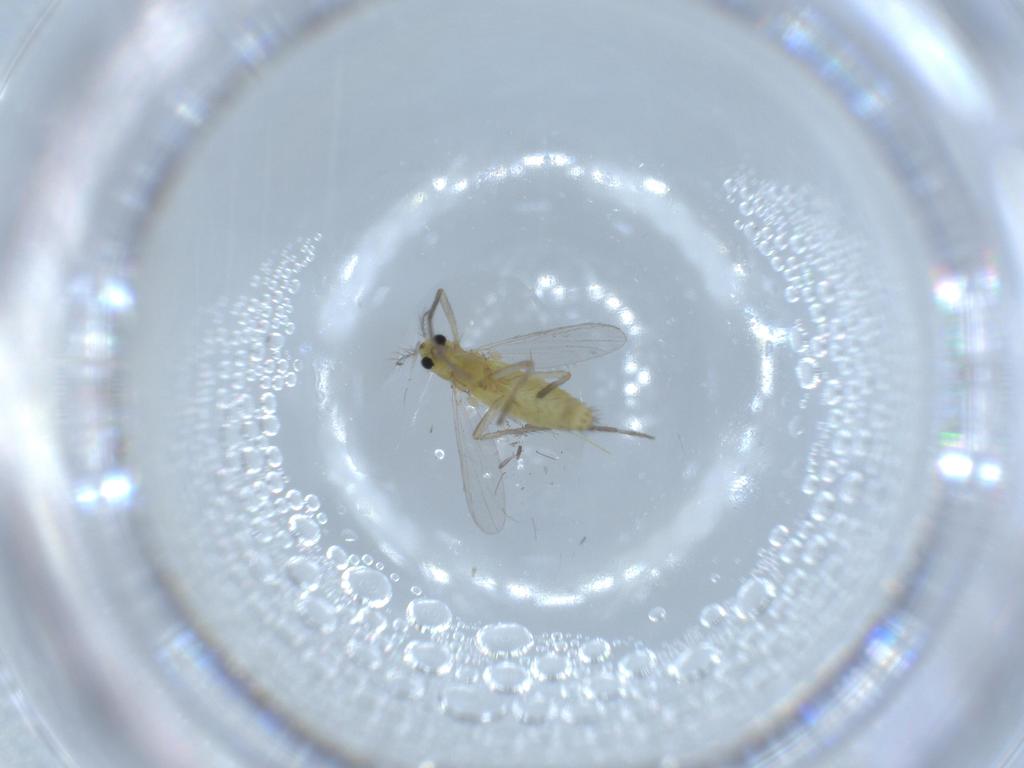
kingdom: Animalia
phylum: Arthropoda
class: Insecta
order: Diptera
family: Chironomidae
